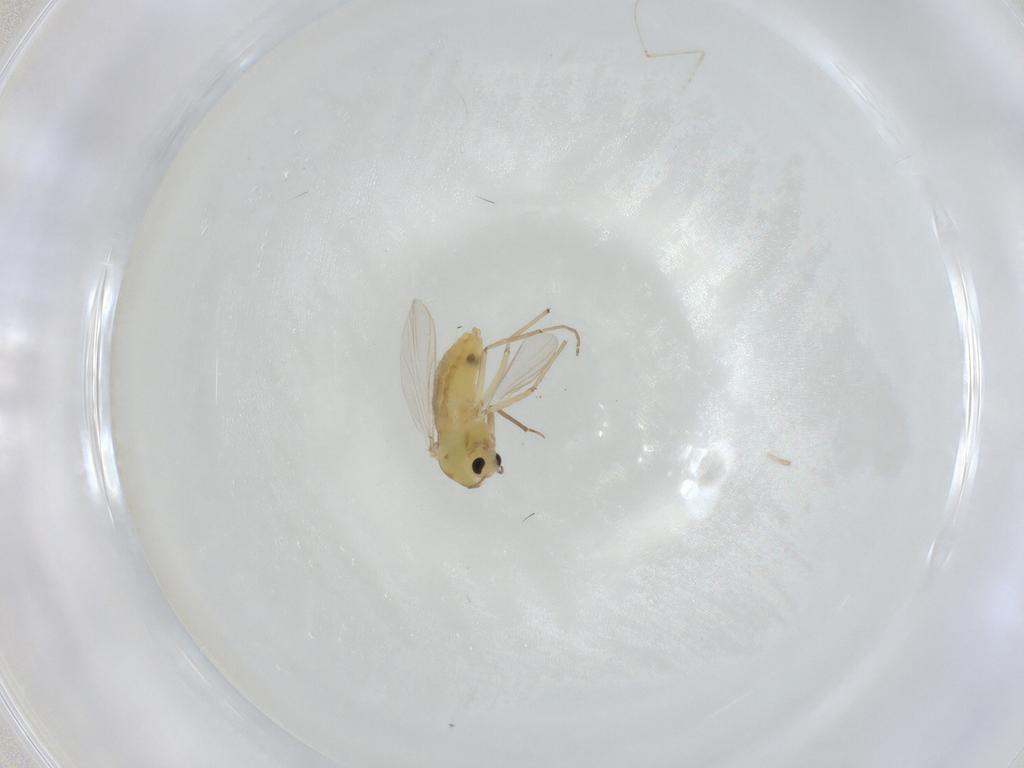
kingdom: Animalia
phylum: Arthropoda
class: Insecta
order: Diptera
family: Chironomidae
